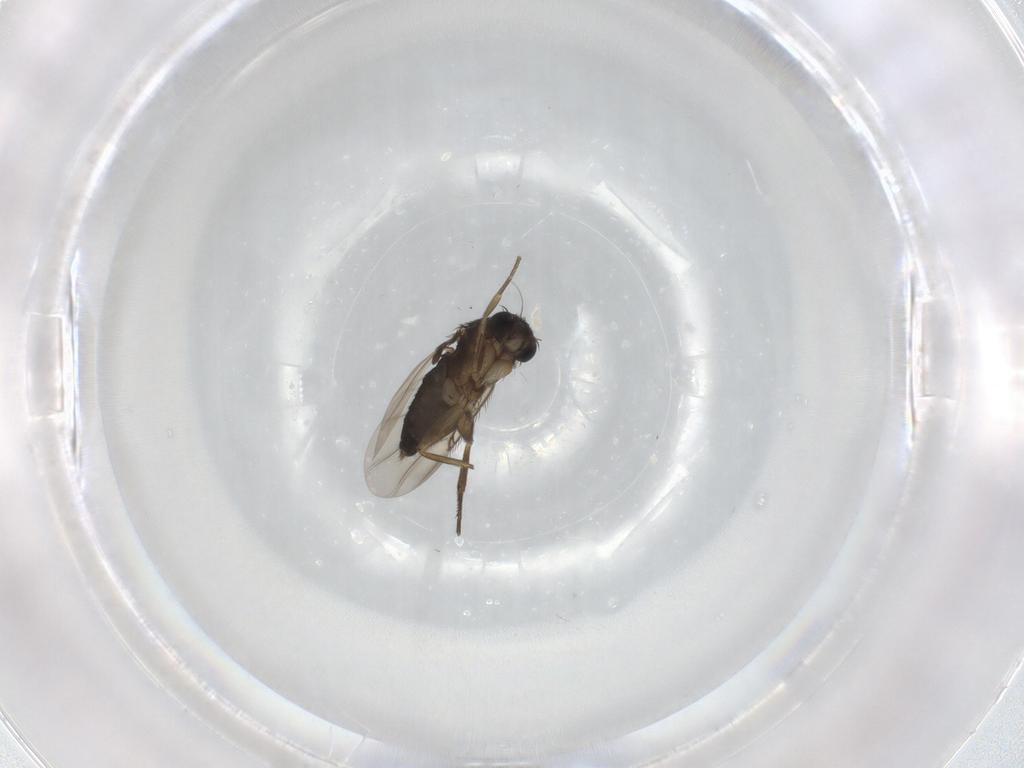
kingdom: Animalia
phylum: Arthropoda
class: Insecta
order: Diptera
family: Phoridae
